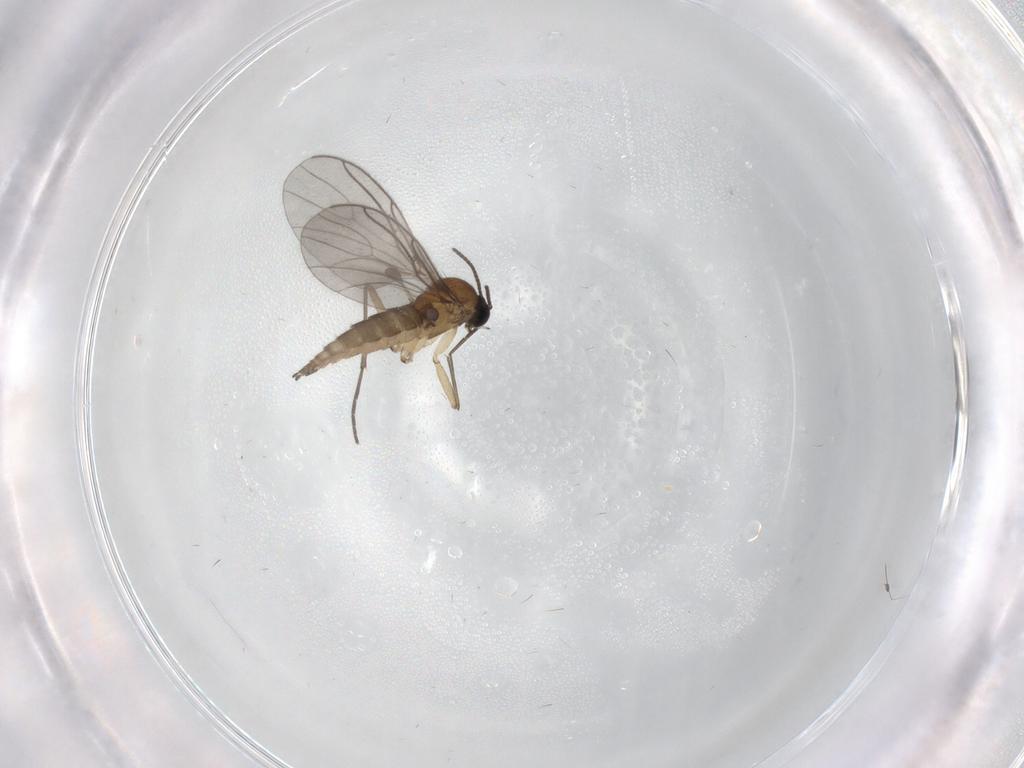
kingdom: Animalia
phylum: Arthropoda
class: Insecta
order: Diptera
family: Sciaridae
